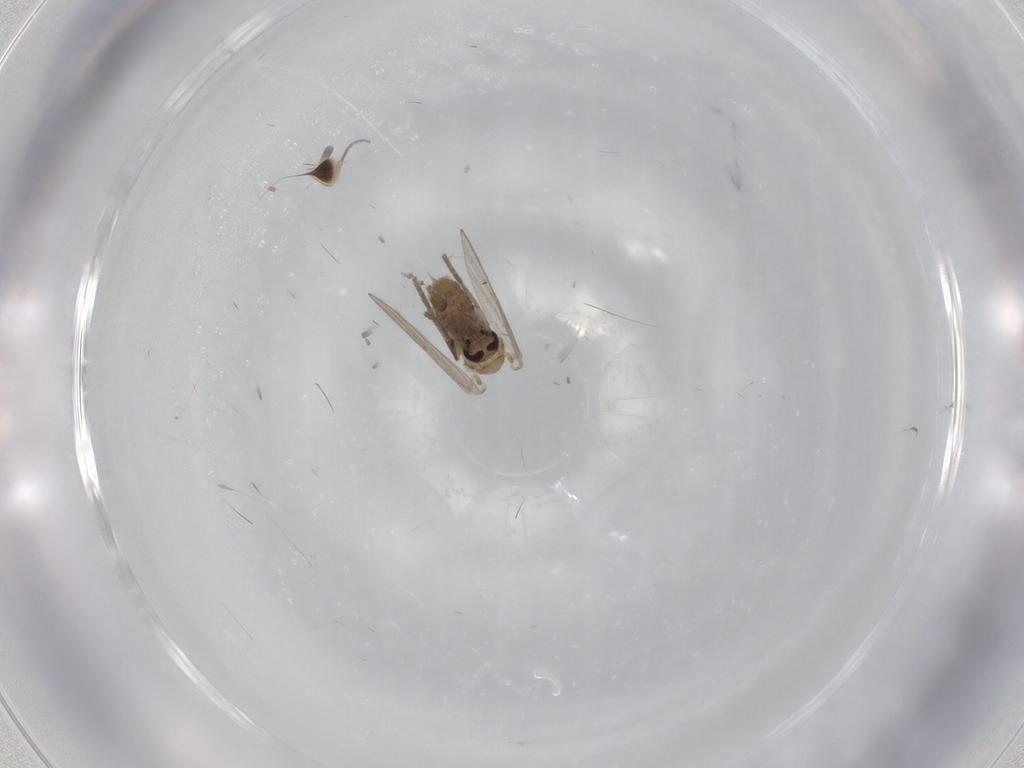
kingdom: Animalia
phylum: Arthropoda
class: Insecta
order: Diptera
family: Psychodidae
